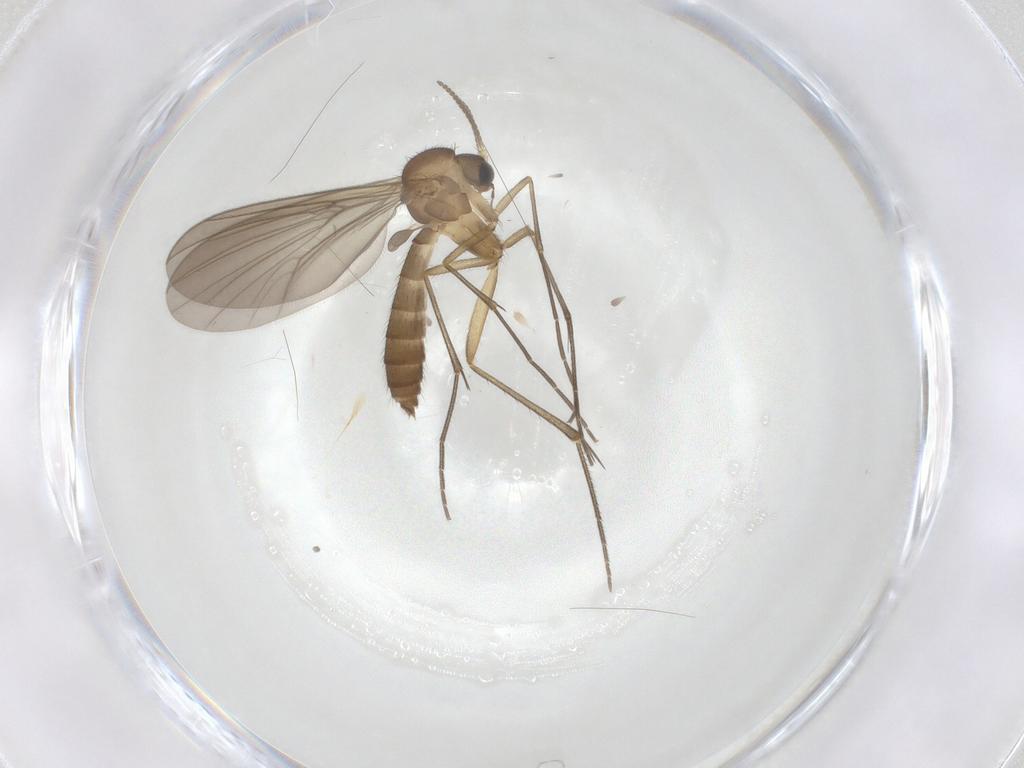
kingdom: Animalia
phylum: Arthropoda
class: Insecta
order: Diptera
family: Mycetophilidae
